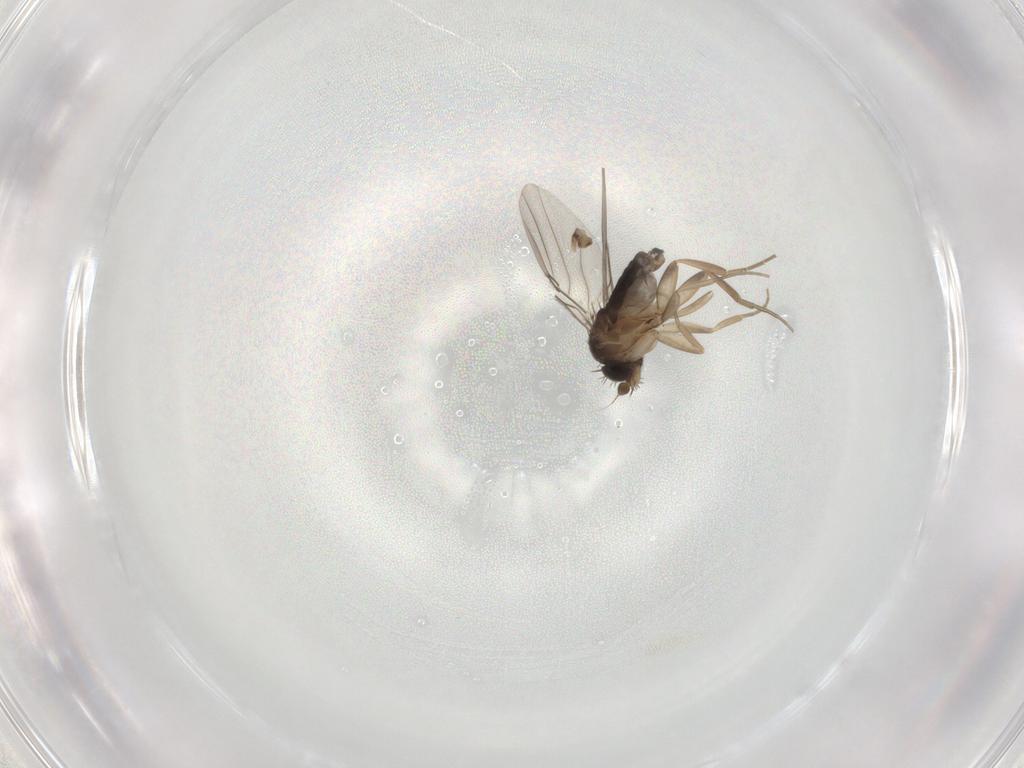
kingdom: Animalia
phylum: Arthropoda
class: Insecta
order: Diptera
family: Phoridae
